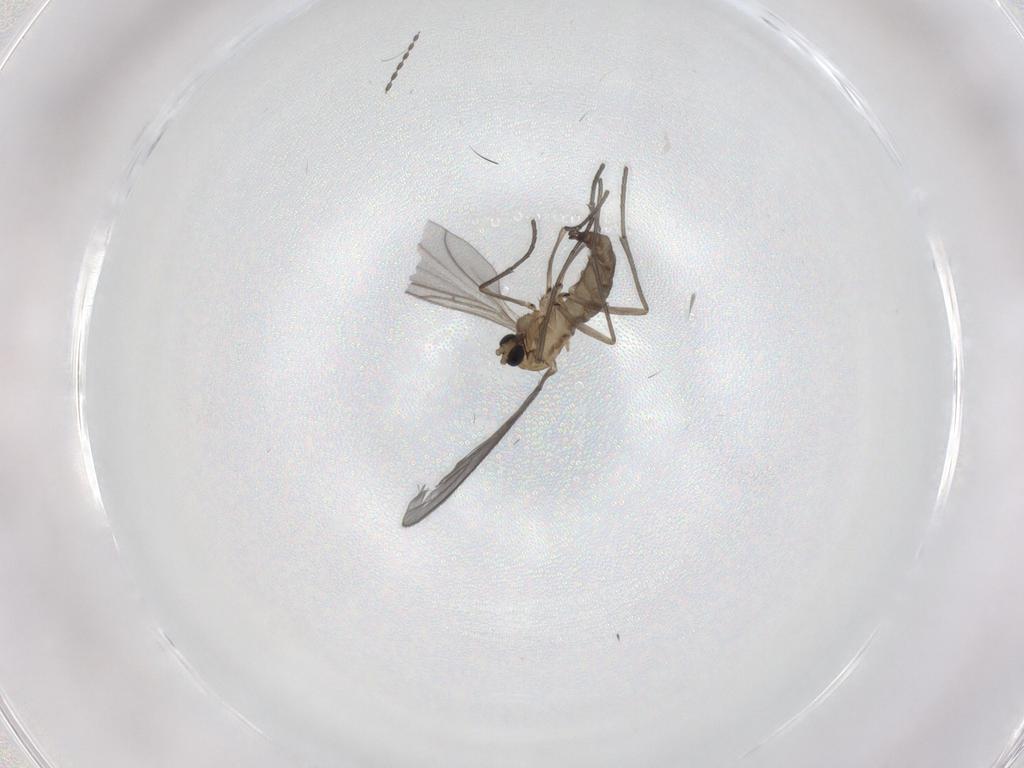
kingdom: Animalia
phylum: Arthropoda
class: Insecta
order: Diptera
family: Sciaridae
